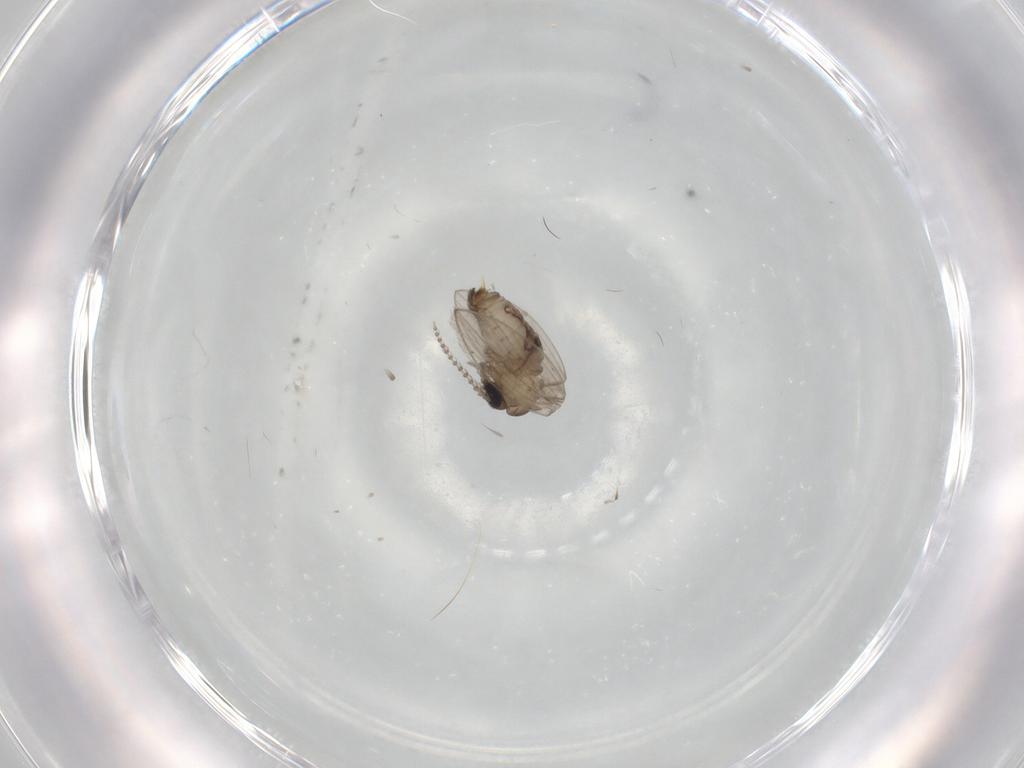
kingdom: Animalia
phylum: Arthropoda
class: Insecta
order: Diptera
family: Psychodidae
